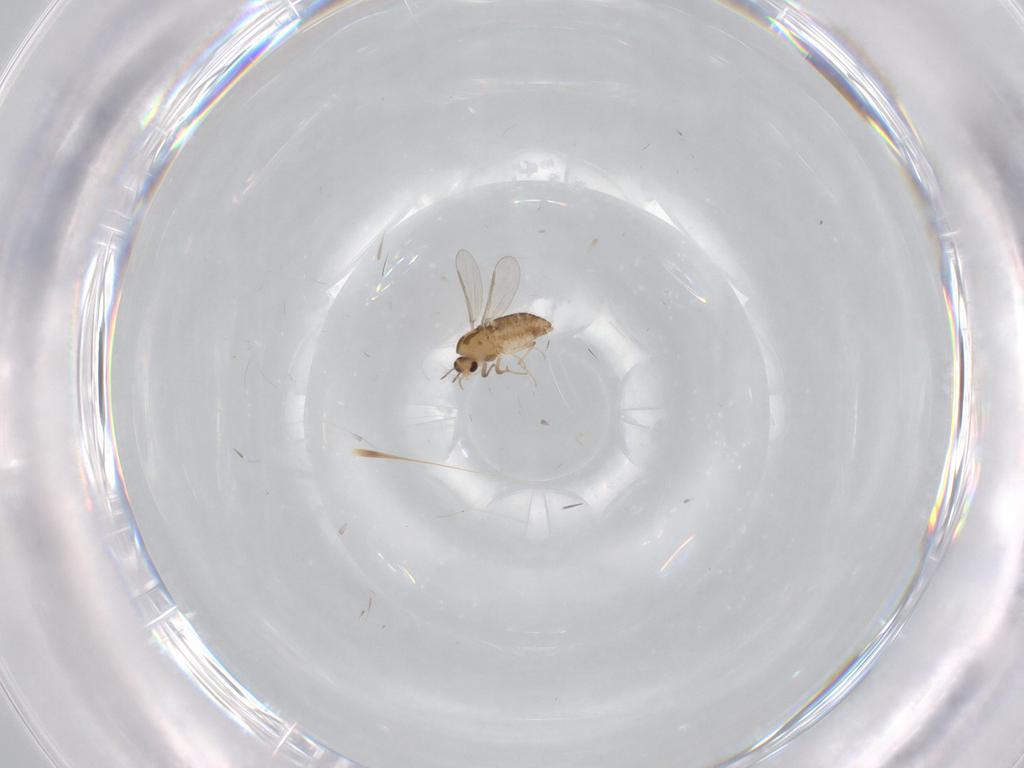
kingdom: Animalia
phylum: Arthropoda
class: Insecta
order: Diptera
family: Chironomidae
